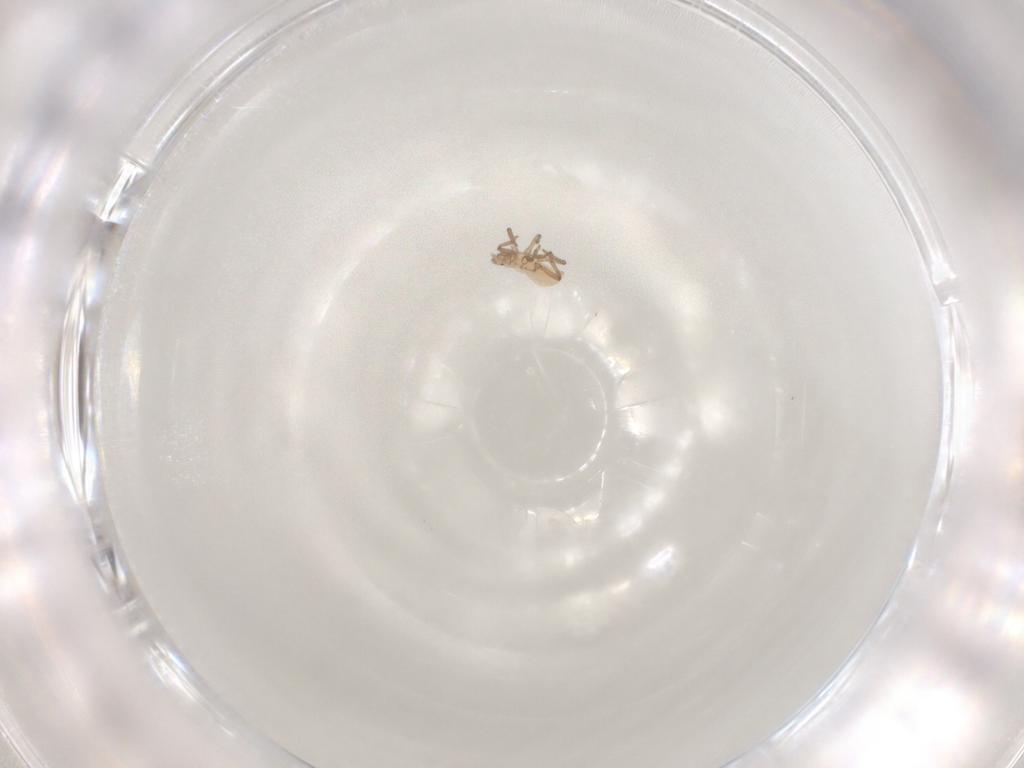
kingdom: Animalia
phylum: Arthropoda
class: Insecta
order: Hemiptera
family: Aphididae
